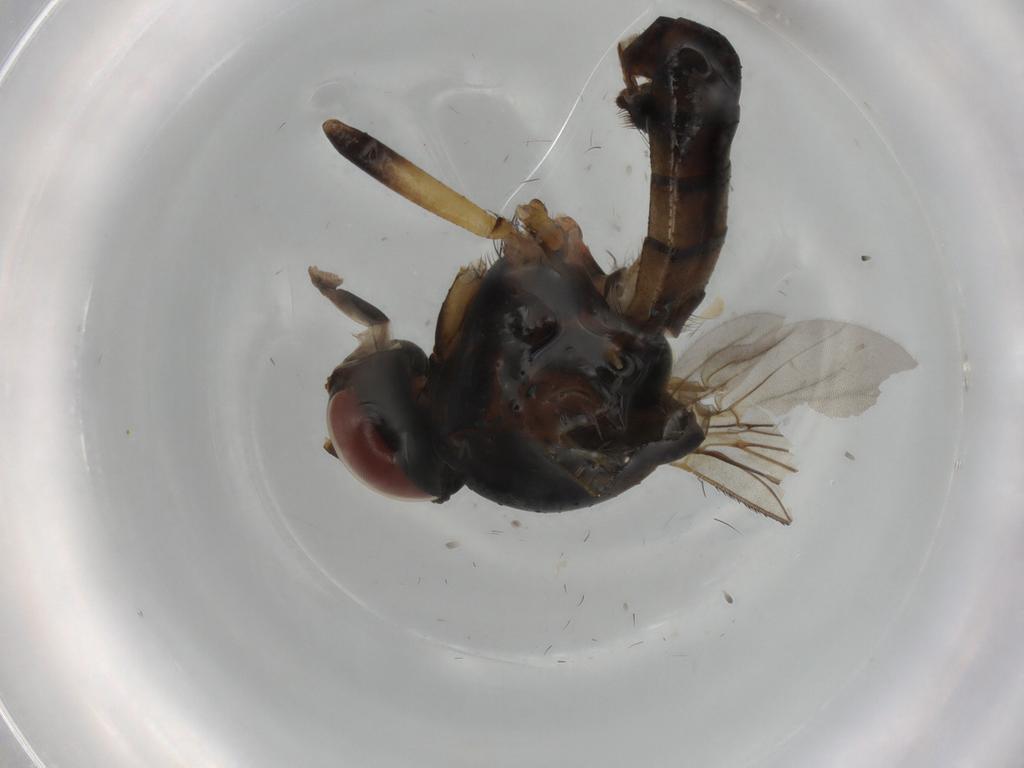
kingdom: Animalia
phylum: Arthropoda
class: Insecta
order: Diptera
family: Anthomyiidae
